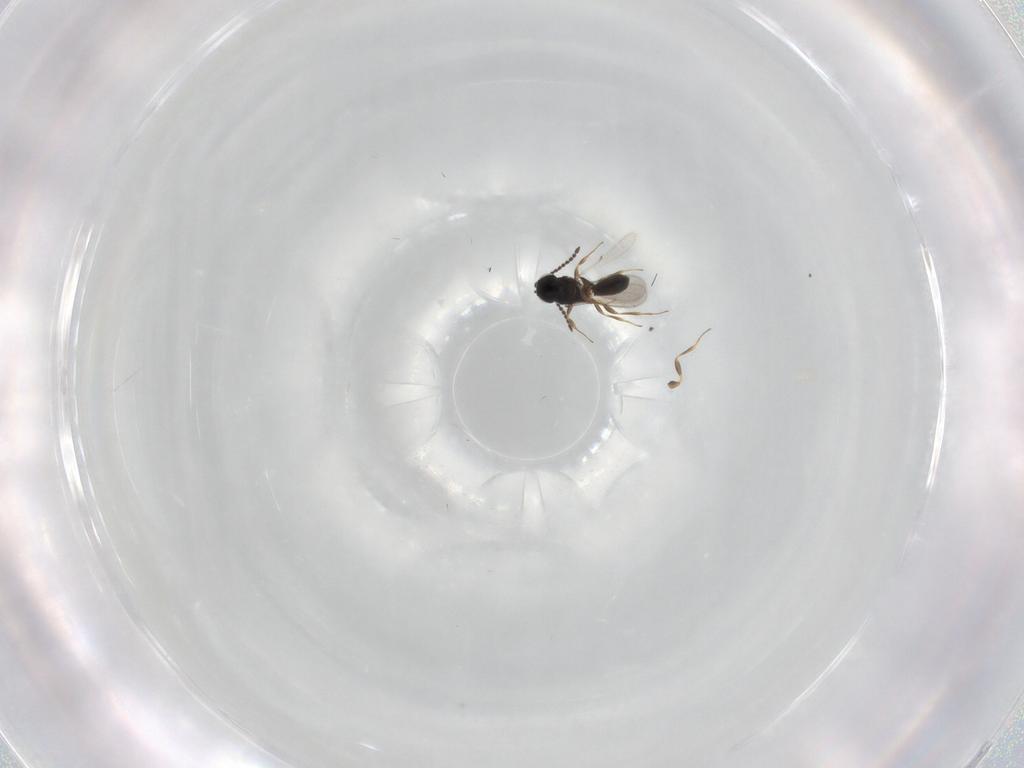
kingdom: Animalia
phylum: Arthropoda
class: Insecta
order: Hymenoptera
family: Scelionidae
